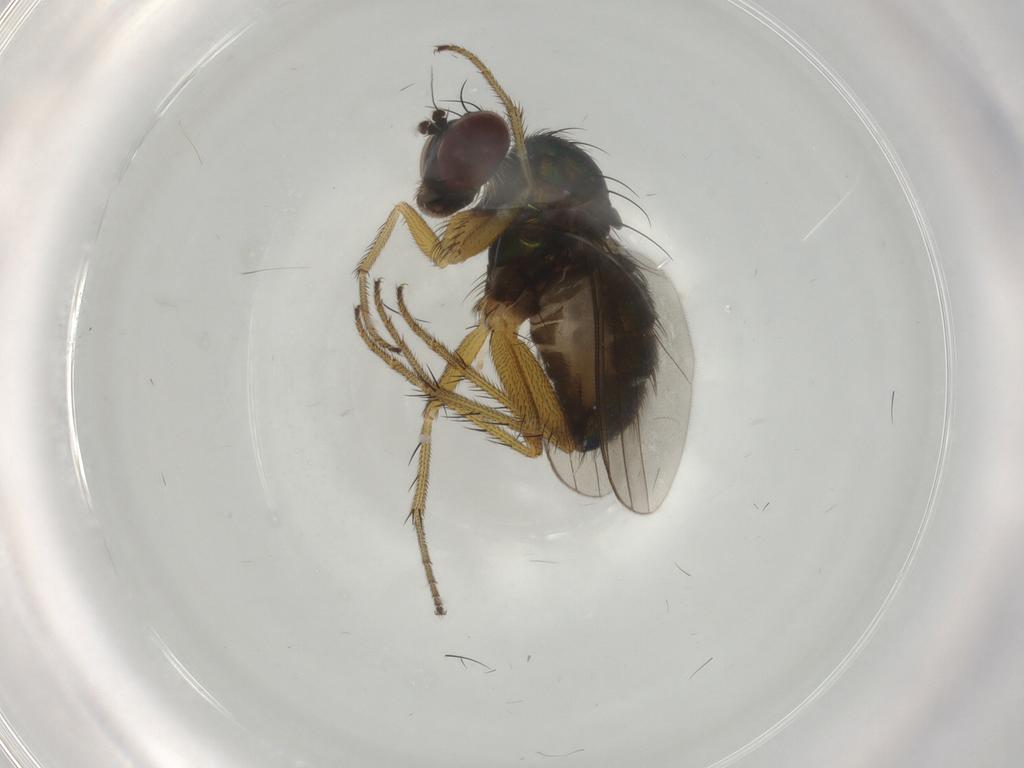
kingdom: Animalia
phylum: Arthropoda
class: Insecta
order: Diptera
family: Dolichopodidae
